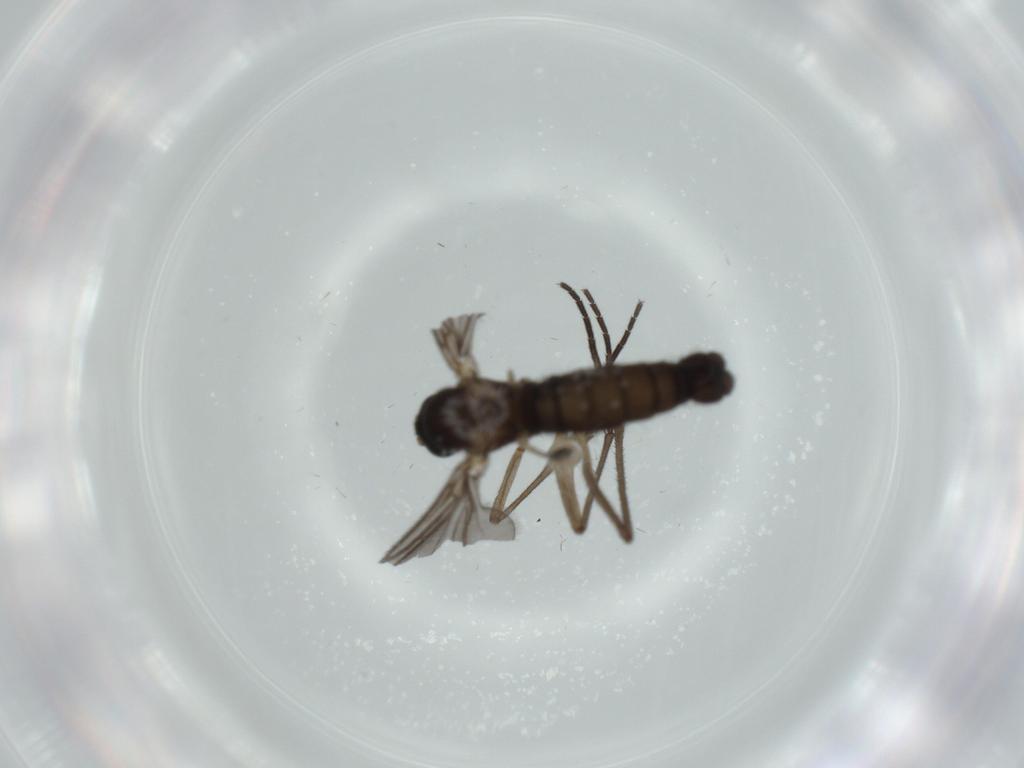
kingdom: Animalia
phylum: Arthropoda
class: Insecta
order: Diptera
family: Sciaridae
